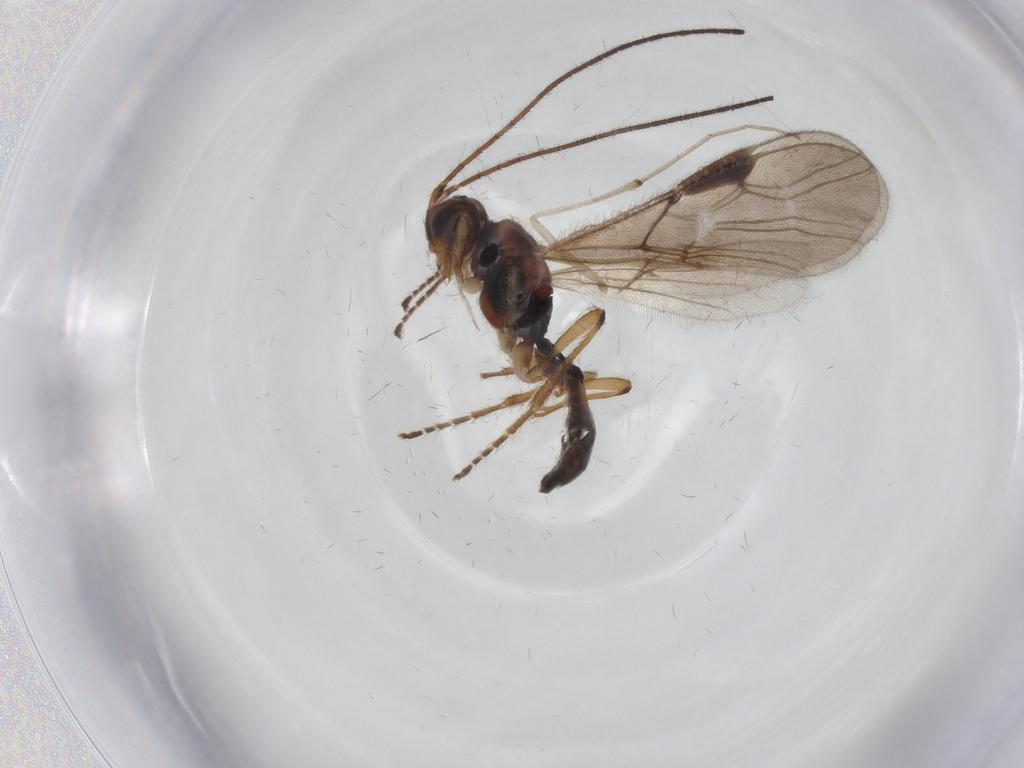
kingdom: Animalia
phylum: Arthropoda
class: Insecta
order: Hymenoptera
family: Braconidae
